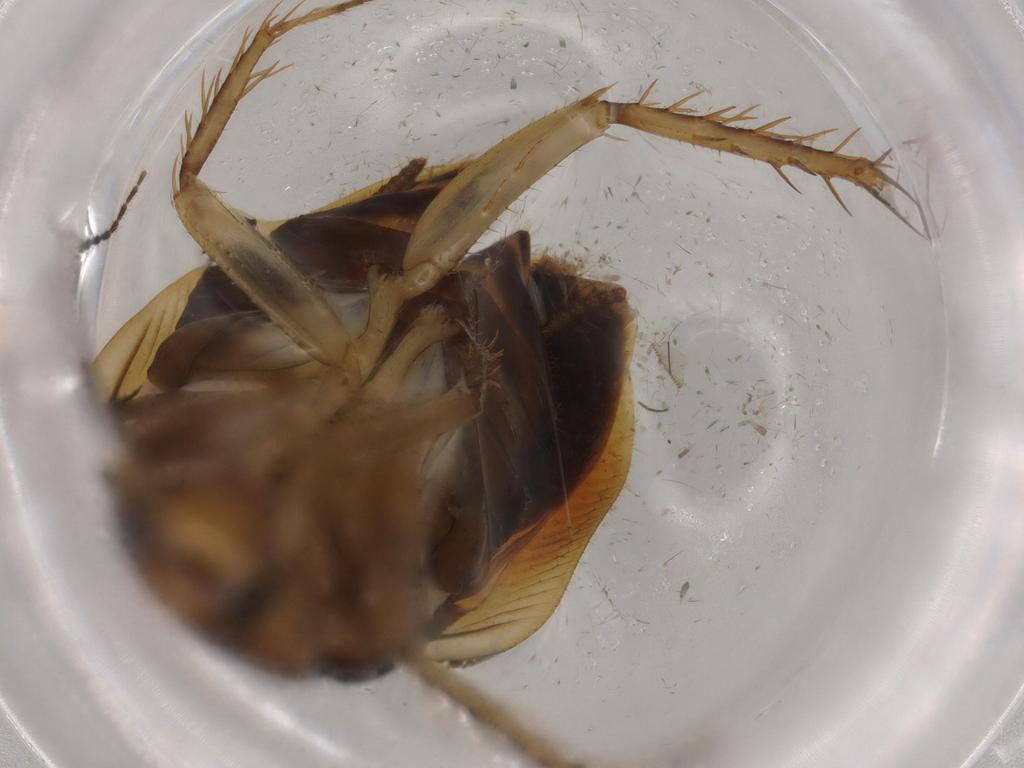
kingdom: Animalia
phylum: Arthropoda
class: Insecta
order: Blattodea
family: Ectobiidae
